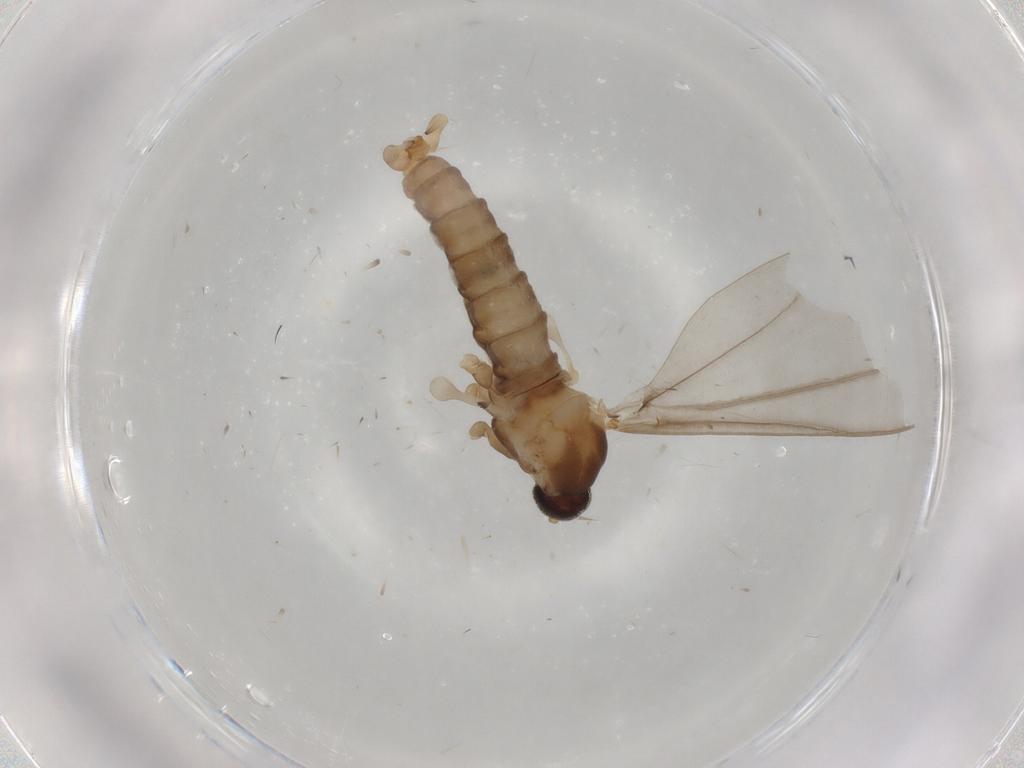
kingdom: Animalia
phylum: Arthropoda
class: Insecta
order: Diptera
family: Cecidomyiidae
